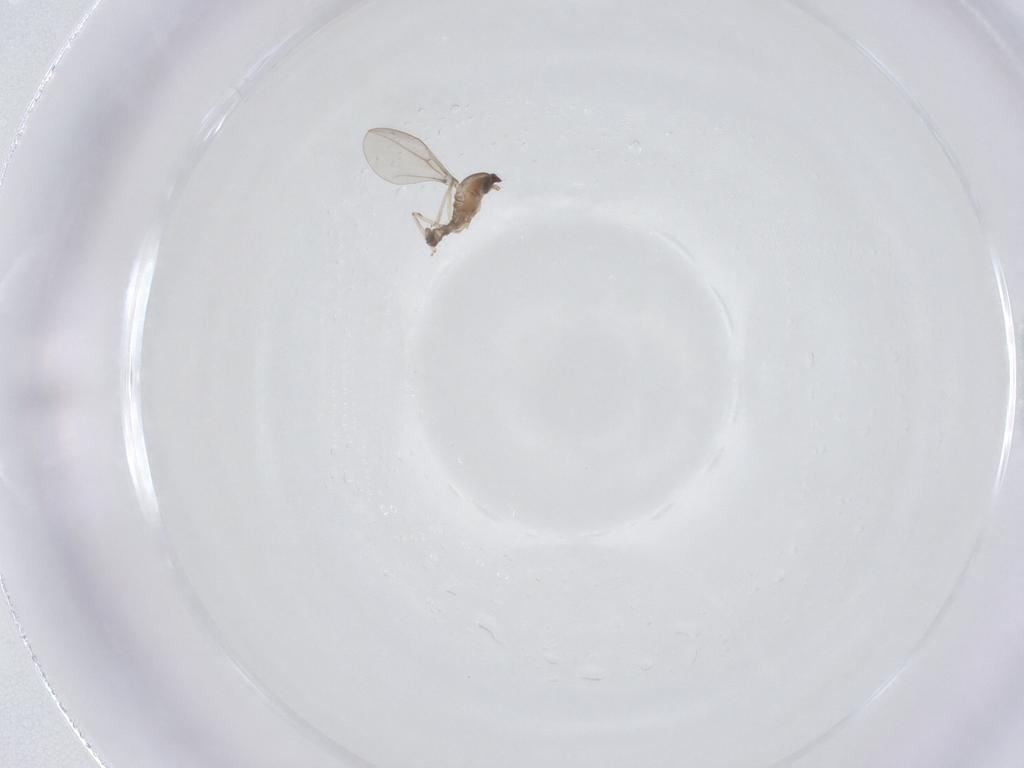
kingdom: Animalia
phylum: Arthropoda
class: Insecta
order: Diptera
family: Cecidomyiidae
